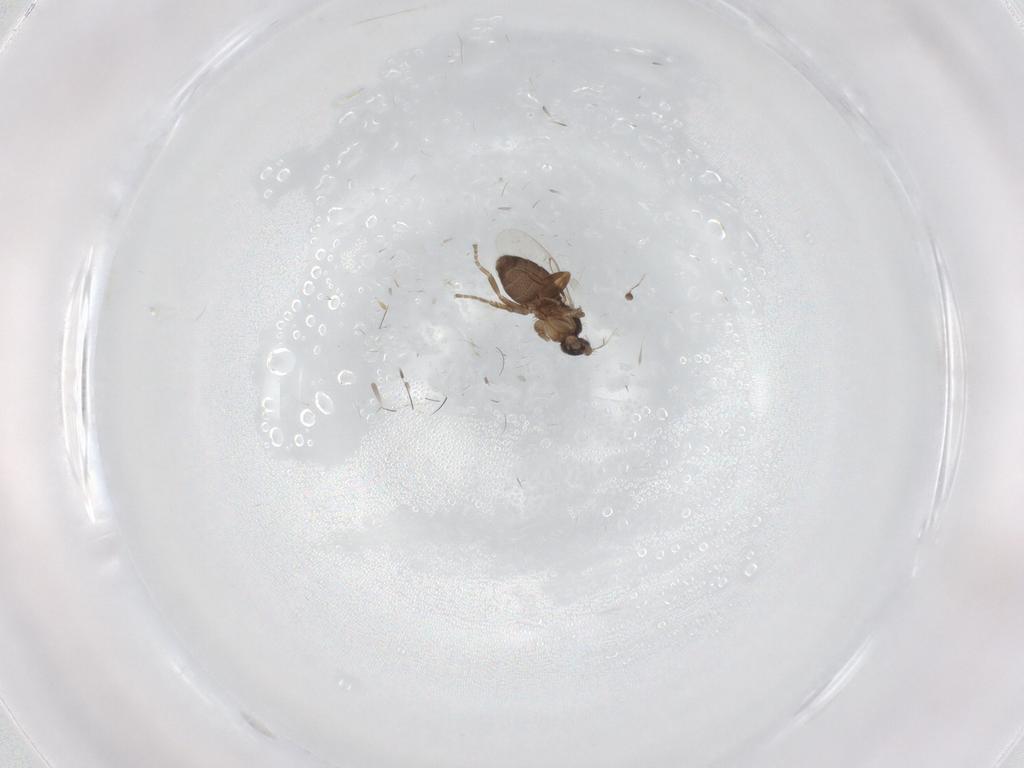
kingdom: Animalia
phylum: Arthropoda
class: Insecta
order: Diptera
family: Phoridae
